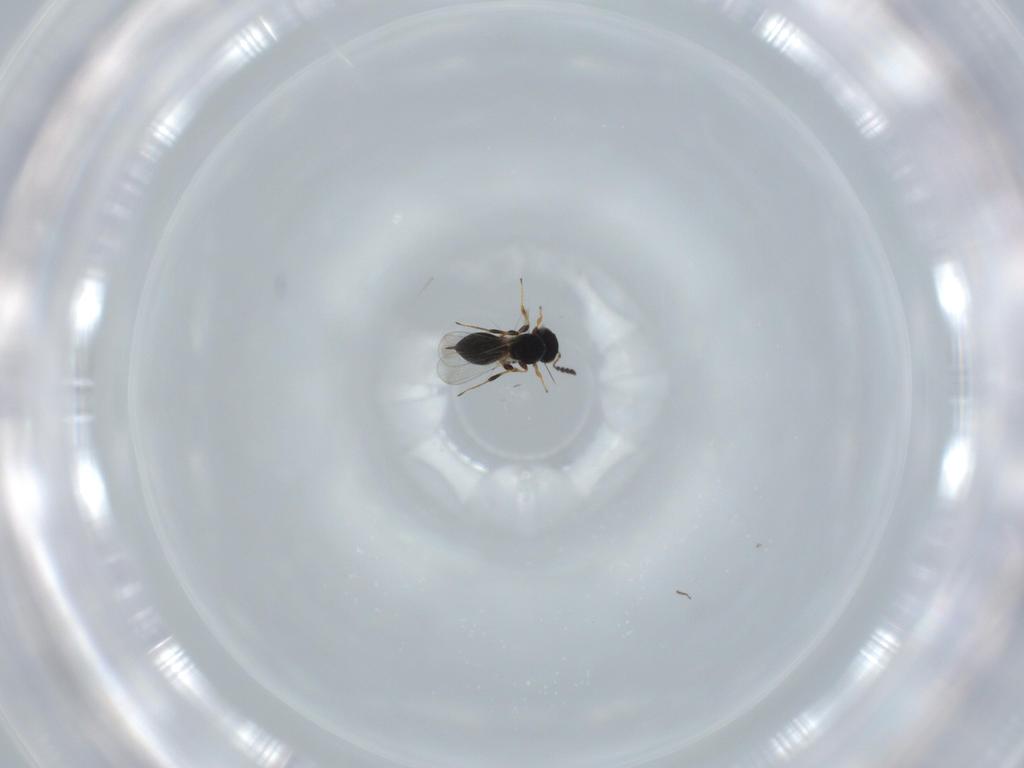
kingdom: Animalia
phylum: Arthropoda
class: Insecta
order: Hymenoptera
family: Platygastridae
